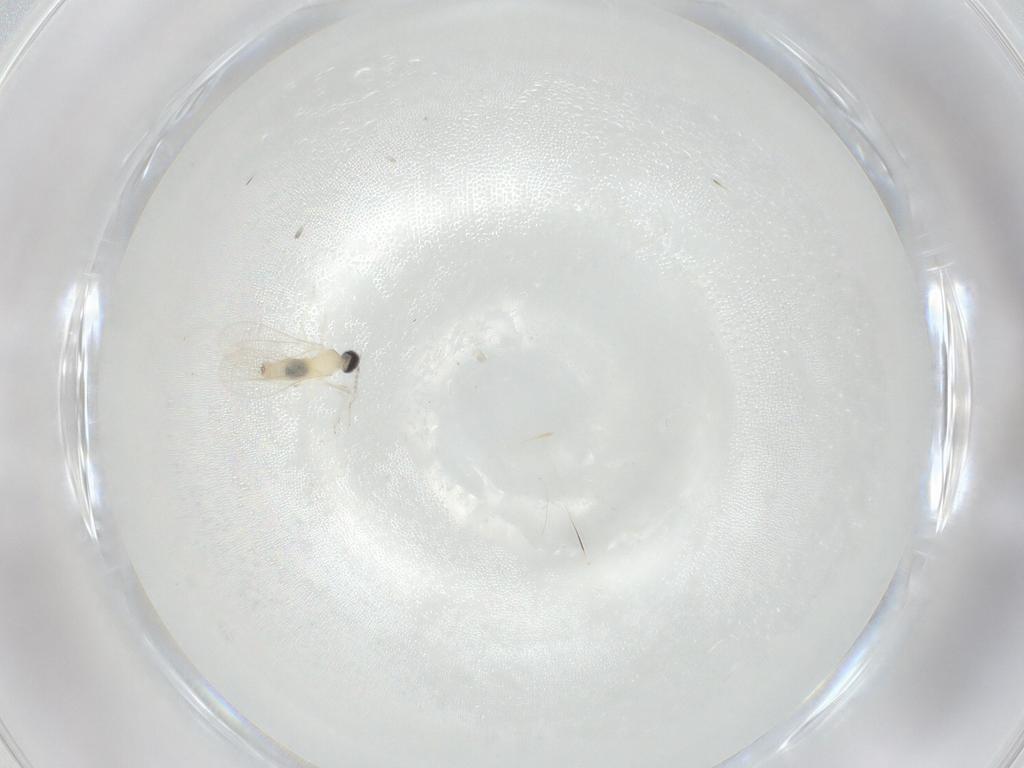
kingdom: Animalia
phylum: Arthropoda
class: Insecta
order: Diptera
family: Cecidomyiidae
